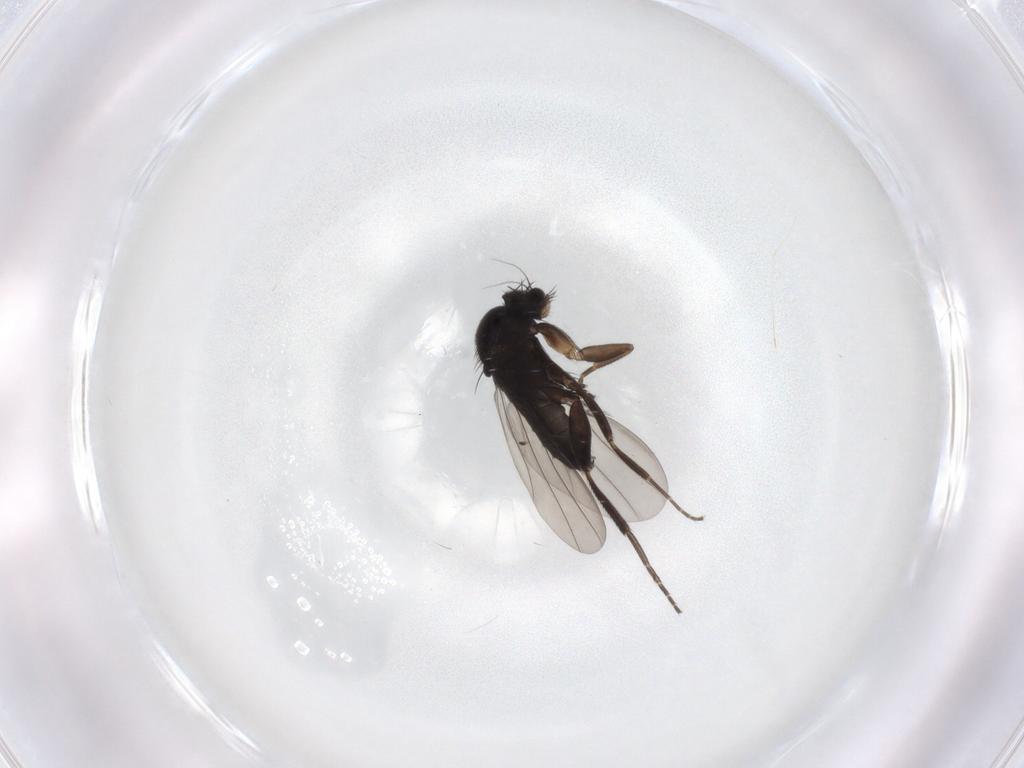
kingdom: Animalia
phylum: Arthropoda
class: Insecta
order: Diptera
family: Phoridae
